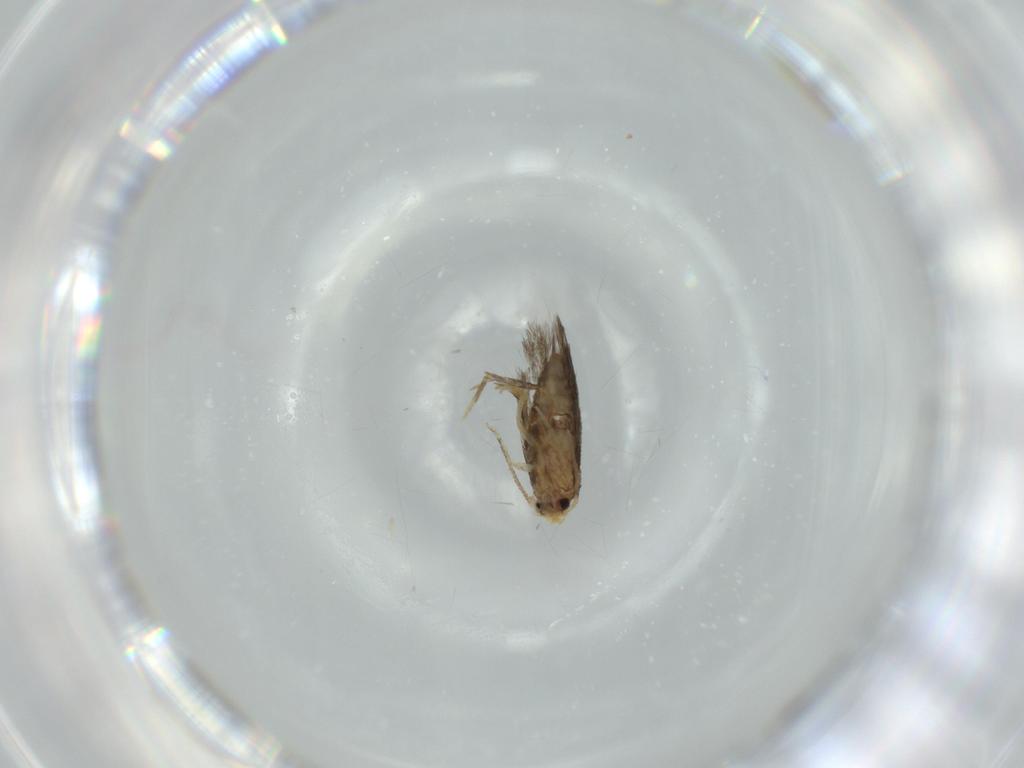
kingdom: Animalia
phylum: Arthropoda
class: Insecta
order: Lepidoptera
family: Nepticulidae
